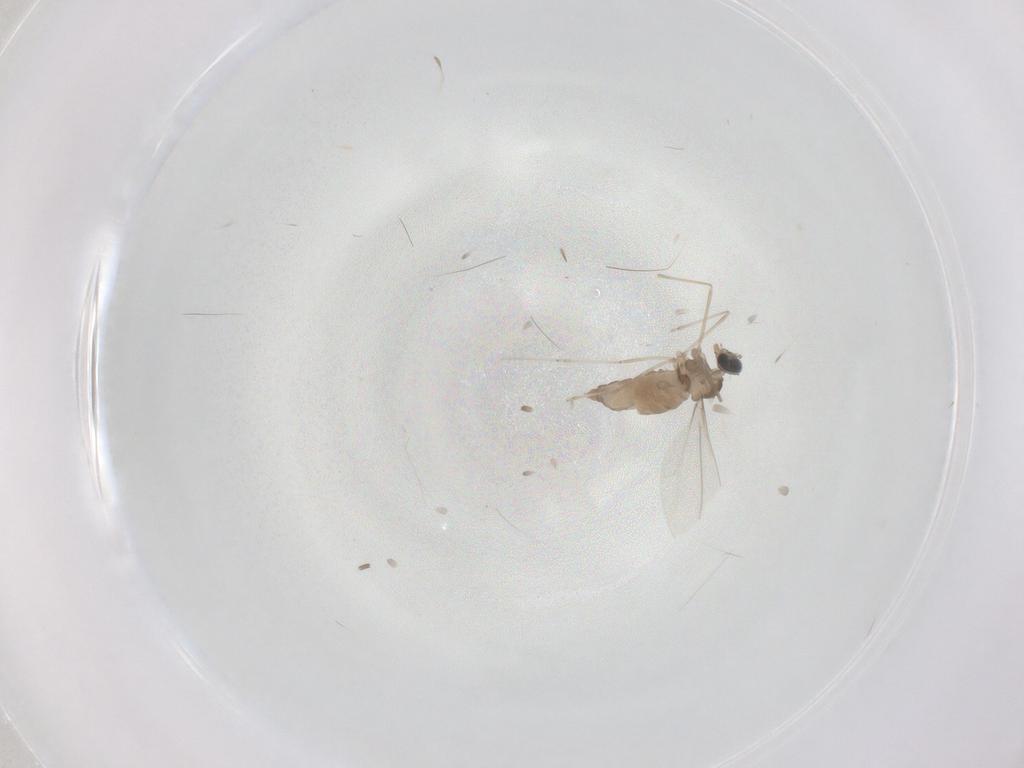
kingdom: Animalia
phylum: Arthropoda
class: Insecta
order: Diptera
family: Cecidomyiidae
